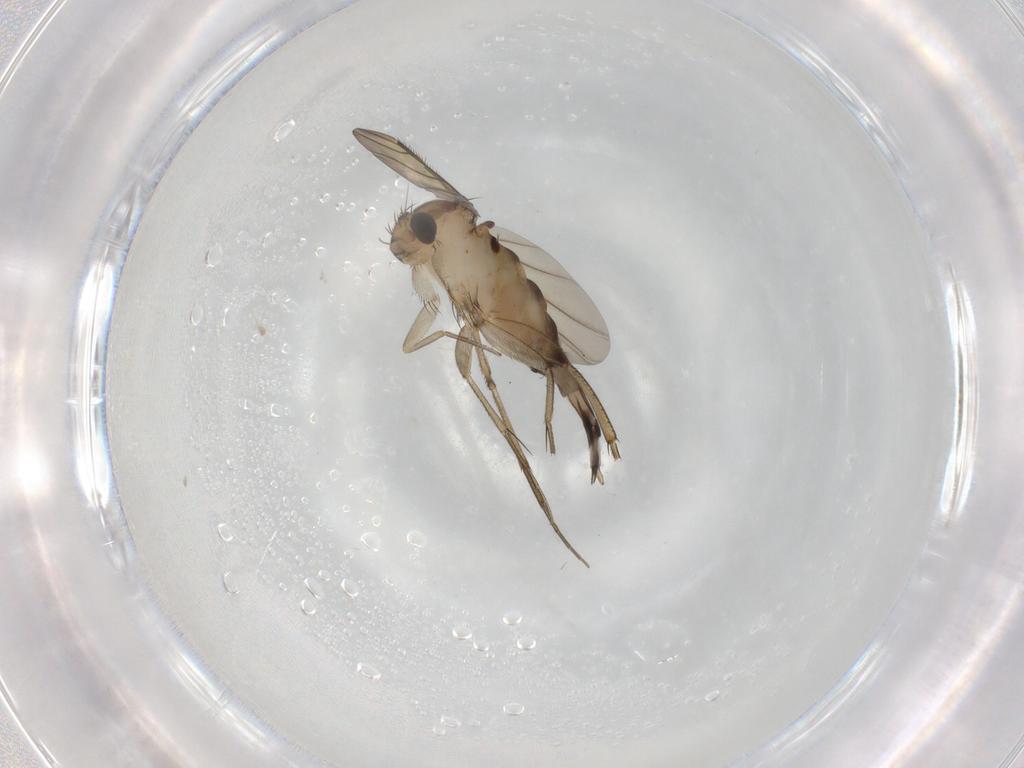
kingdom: Animalia
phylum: Arthropoda
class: Insecta
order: Diptera
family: Phoridae
